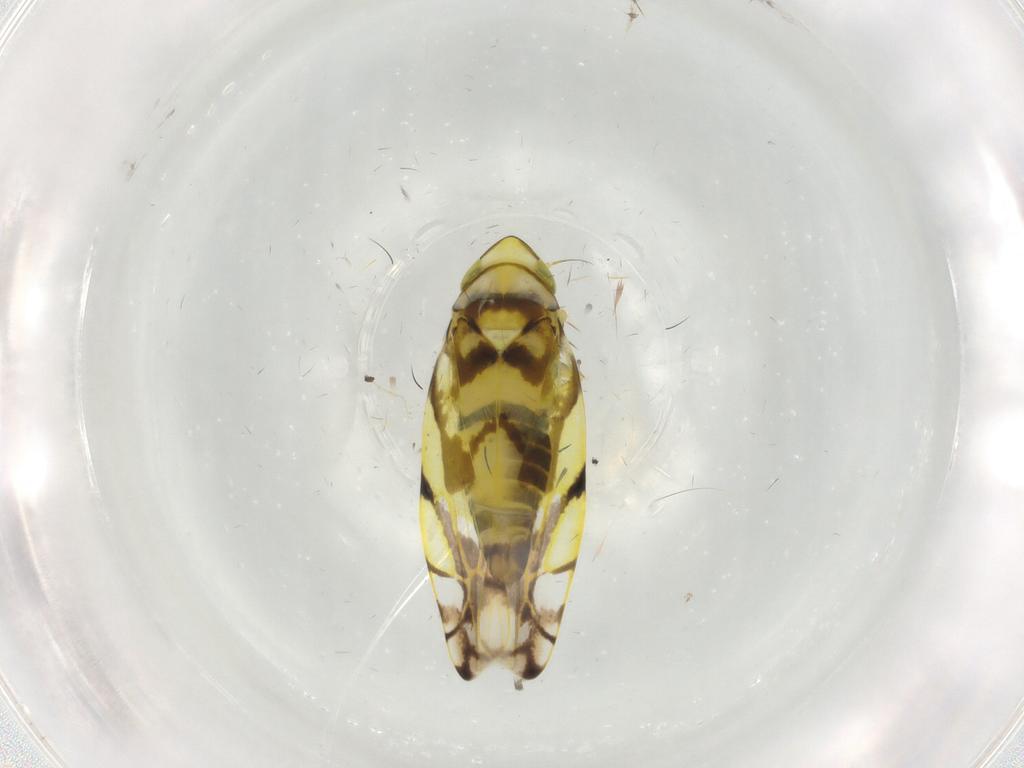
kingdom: Animalia
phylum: Arthropoda
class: Insecta
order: Hemiptera
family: Cicadellidae
